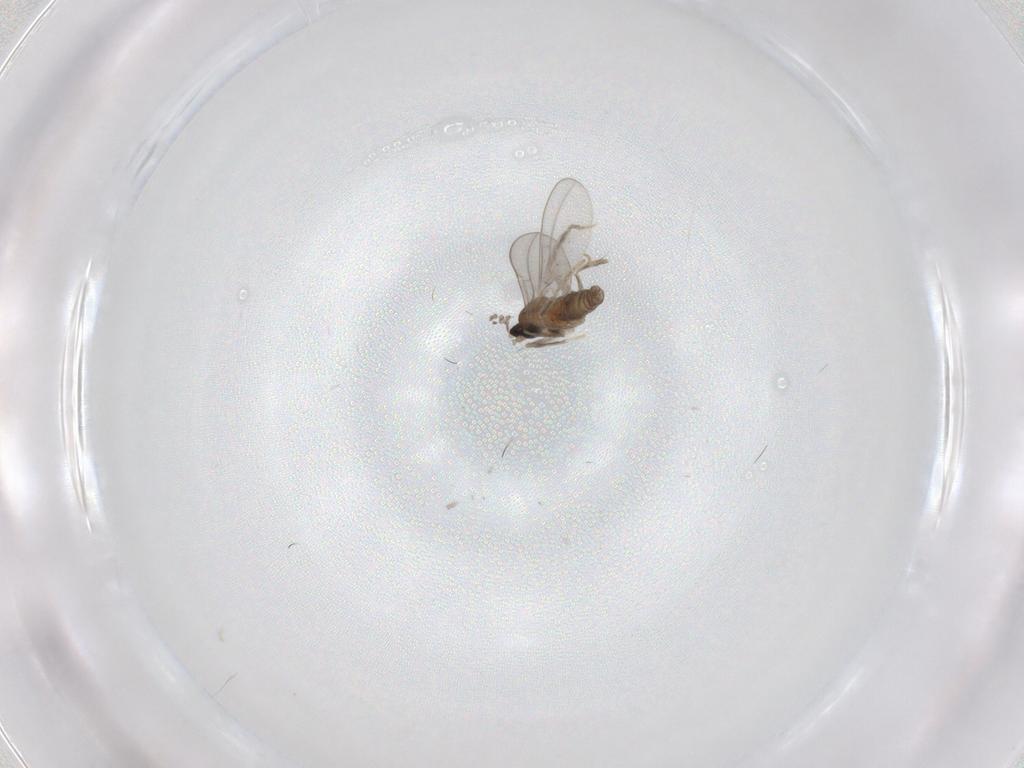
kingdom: Animalia
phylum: Arthropoda
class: Insecta
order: Diptera
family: Cecidomyiidae
